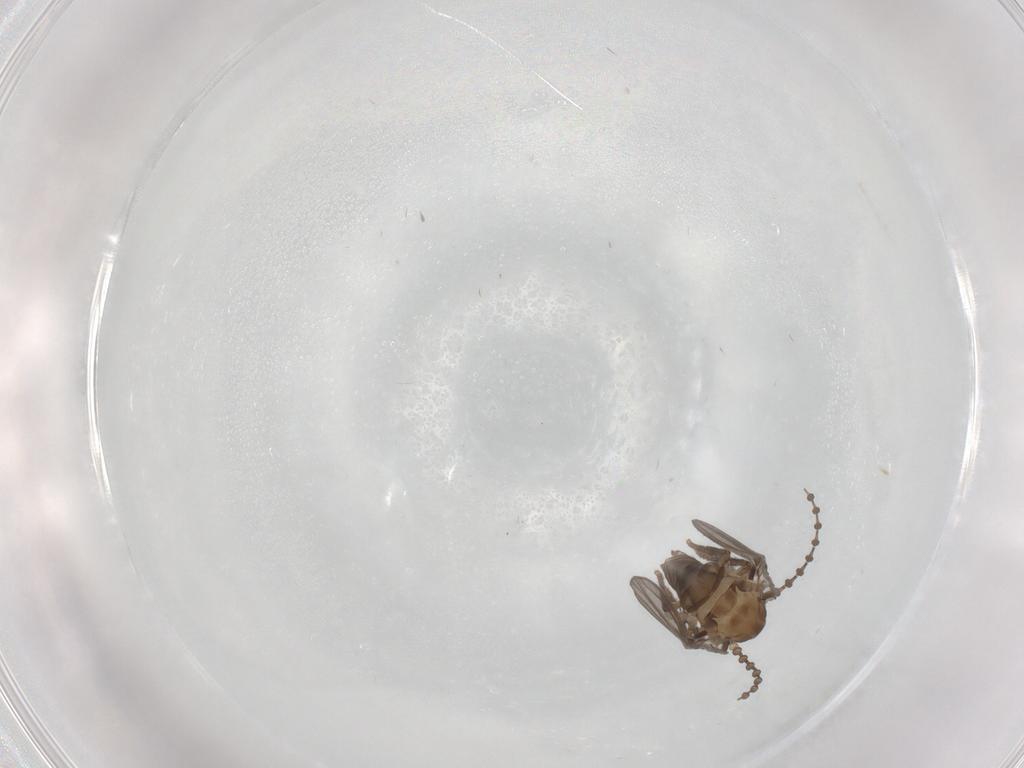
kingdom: Animalia
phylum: Arthropoda
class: Insecta
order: Diptera
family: Psychodidae
